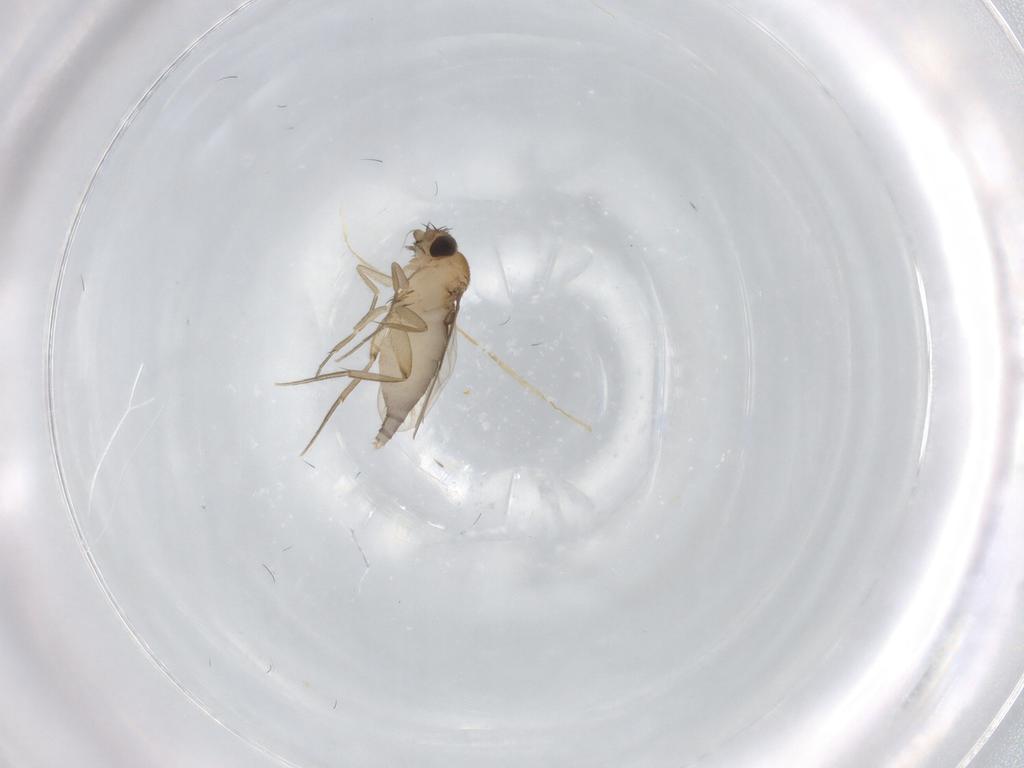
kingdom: Animalia
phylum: Arthropoda
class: Insecta
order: Diptera
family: Phoridae
